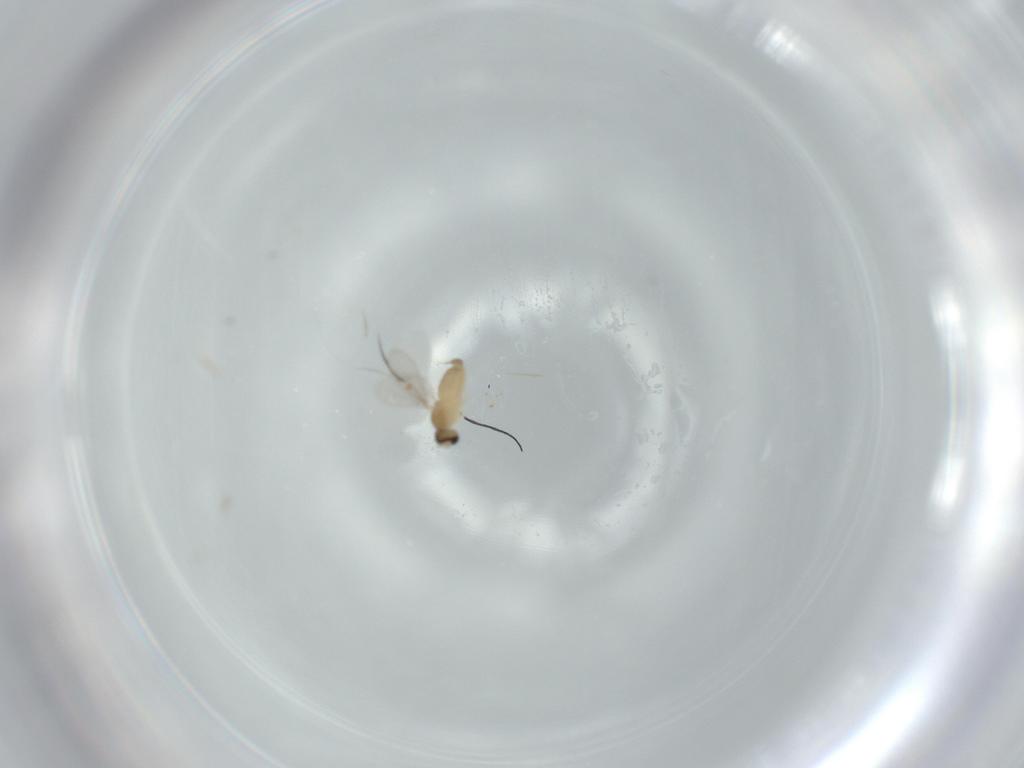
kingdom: Animalia
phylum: Arthropoda
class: Insecta
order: Diptera
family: Cecidomyiidae
